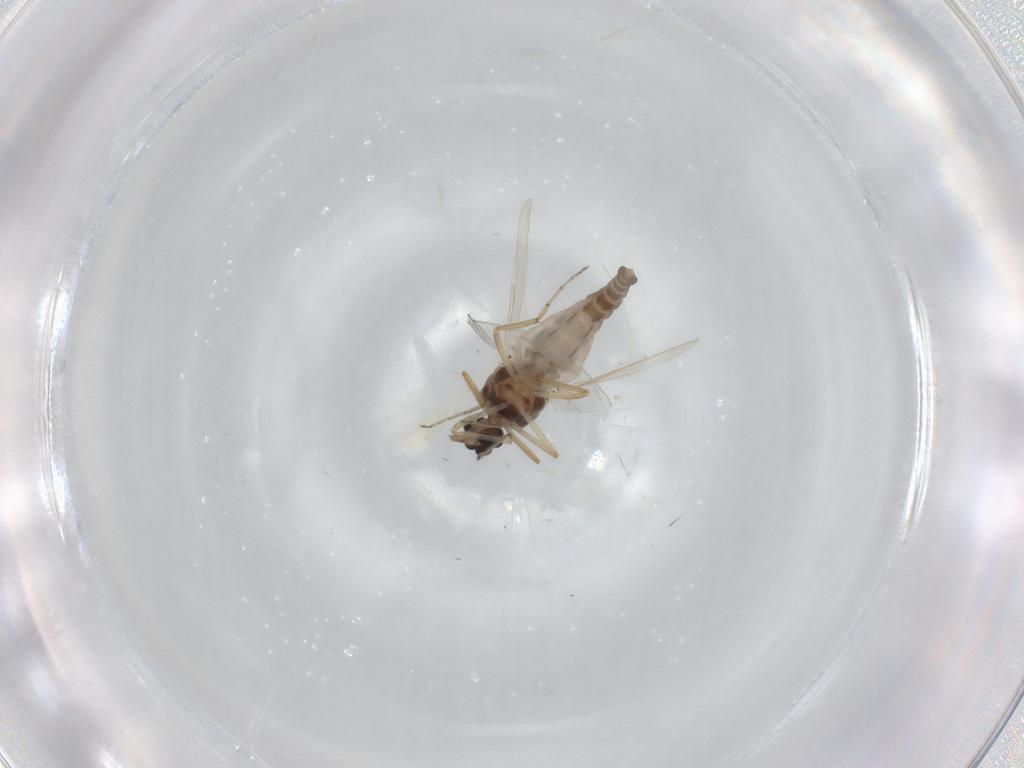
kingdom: Animalia
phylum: Arthropoda
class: Insecta
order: Diptera
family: Ceratopogonidae
